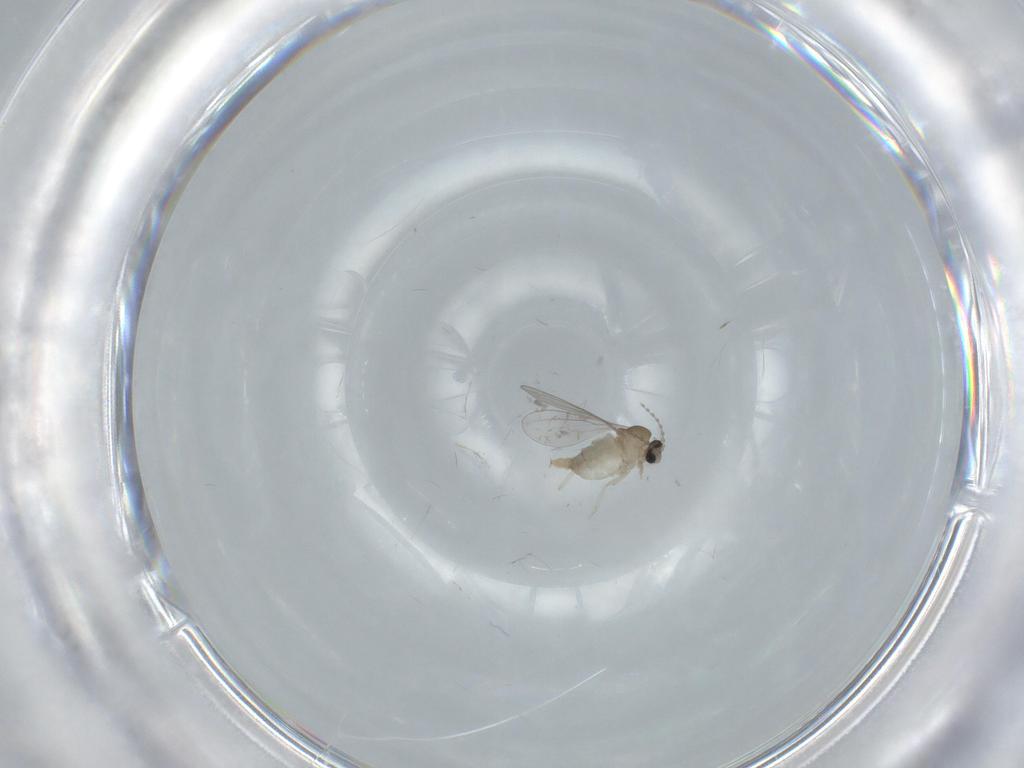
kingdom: Animalia
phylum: Arthropoda
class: Insecta
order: Diptera
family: Cecidomyiidae
